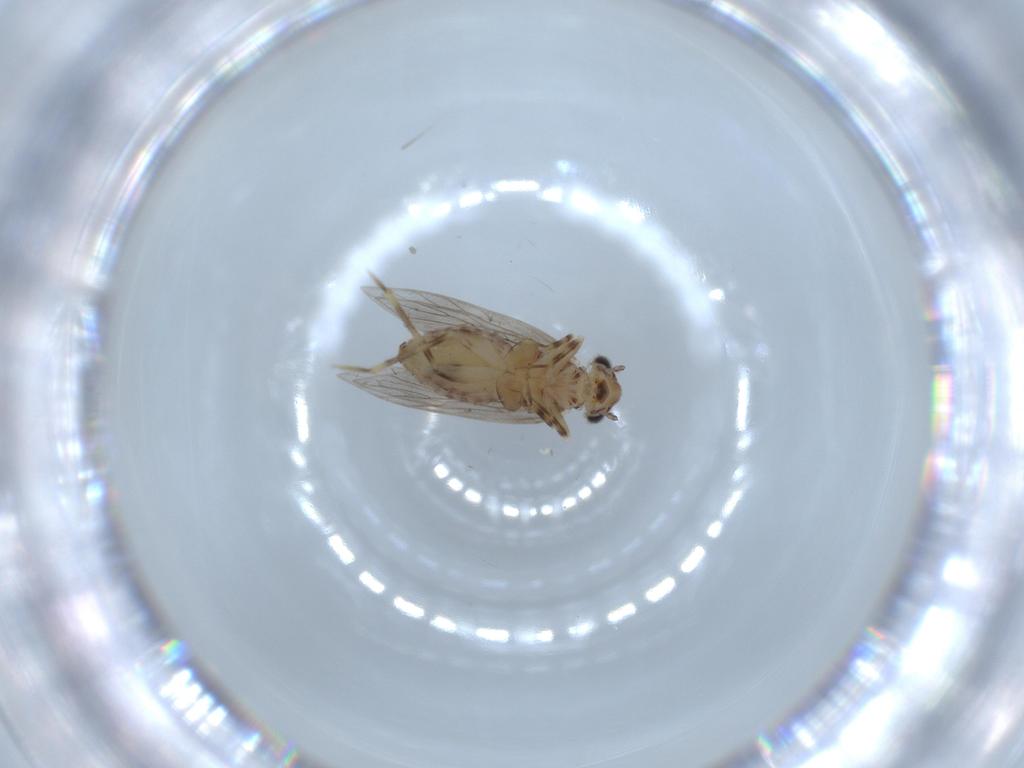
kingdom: Animalia
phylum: Arthropoda
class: Insecta
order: Psocodea
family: Lepidopsocidae
